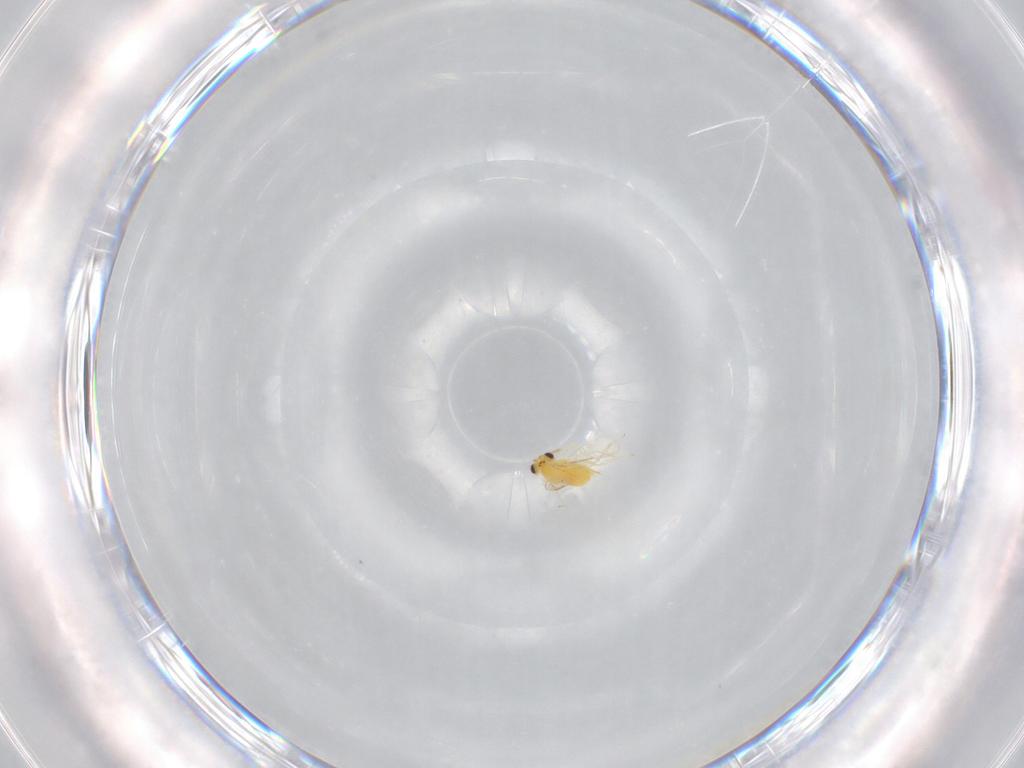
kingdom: Animalia
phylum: Arthropoda
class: Insecta
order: Hymenoptera
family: Aphelinidae
